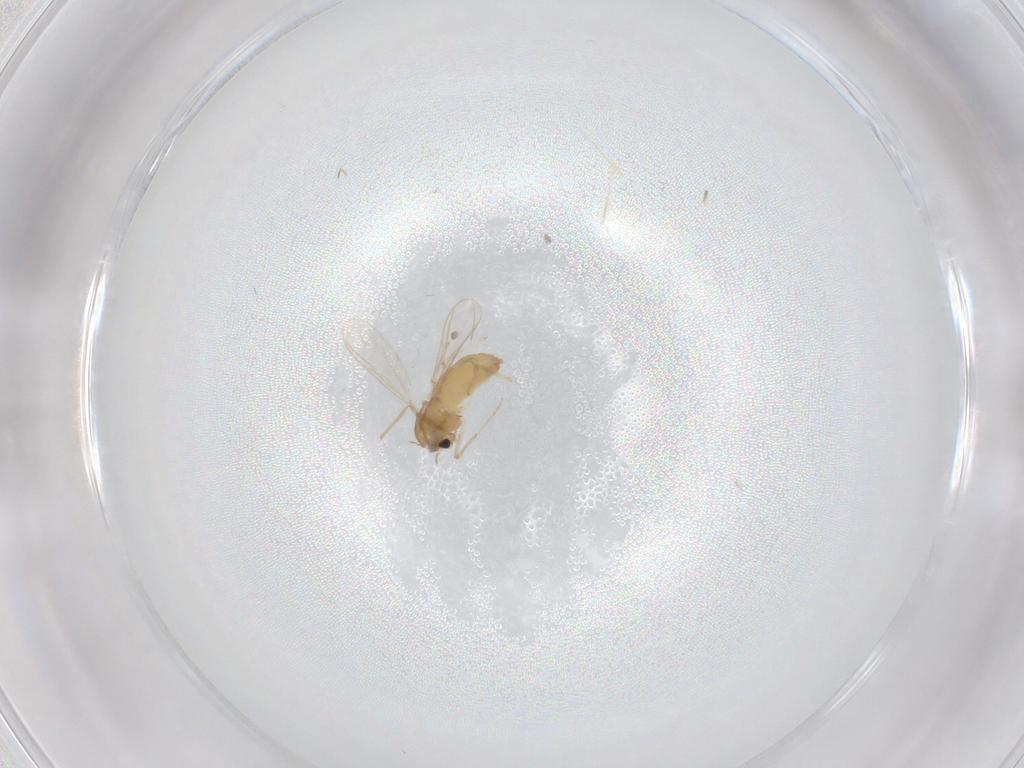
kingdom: Animalia
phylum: Arthropoda
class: Insecta
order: Diptera
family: Chironomidae
